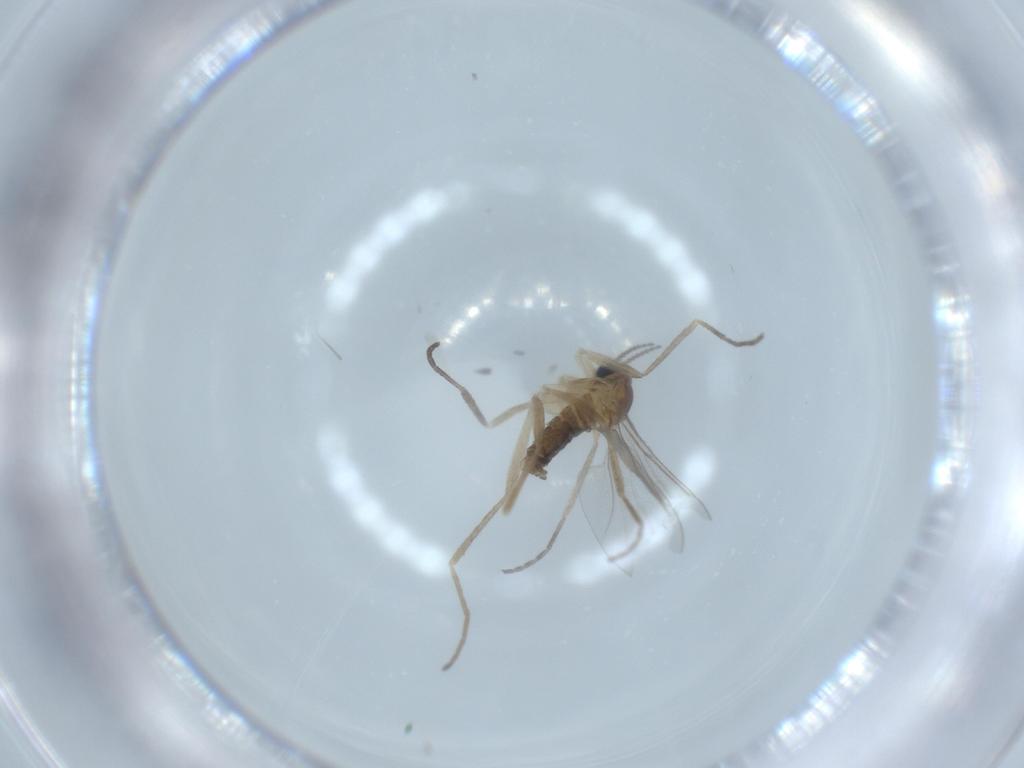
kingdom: Animalia
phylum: Arthropoda
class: Insecta
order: Diptera
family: Cecidomyiidae
